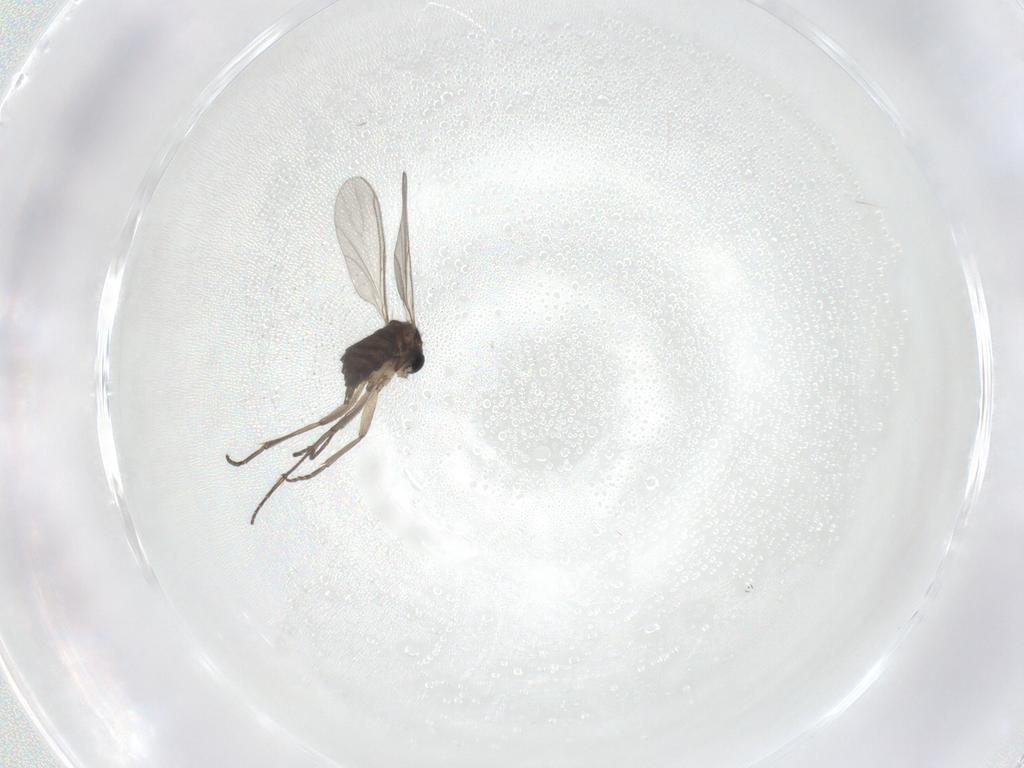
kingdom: Animalia
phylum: Arthropoda
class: Insecta
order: Diptera
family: Sciaridae
